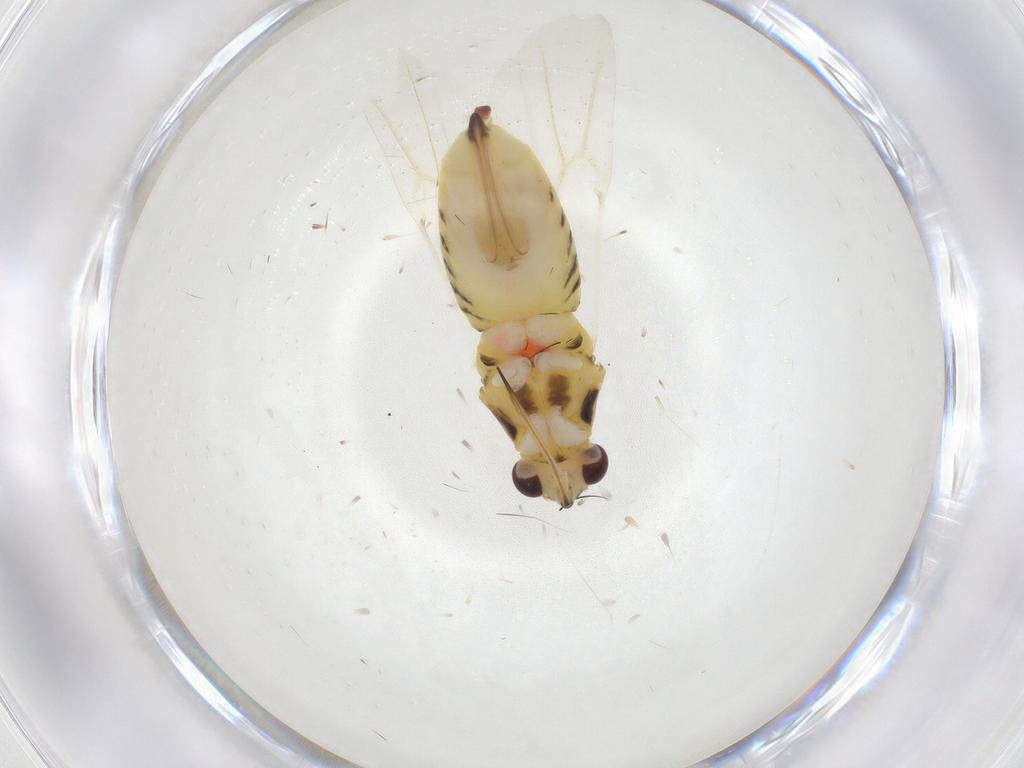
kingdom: Animalia
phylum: Arthropoda
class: Insecta
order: Hemiptera
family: Miridae
